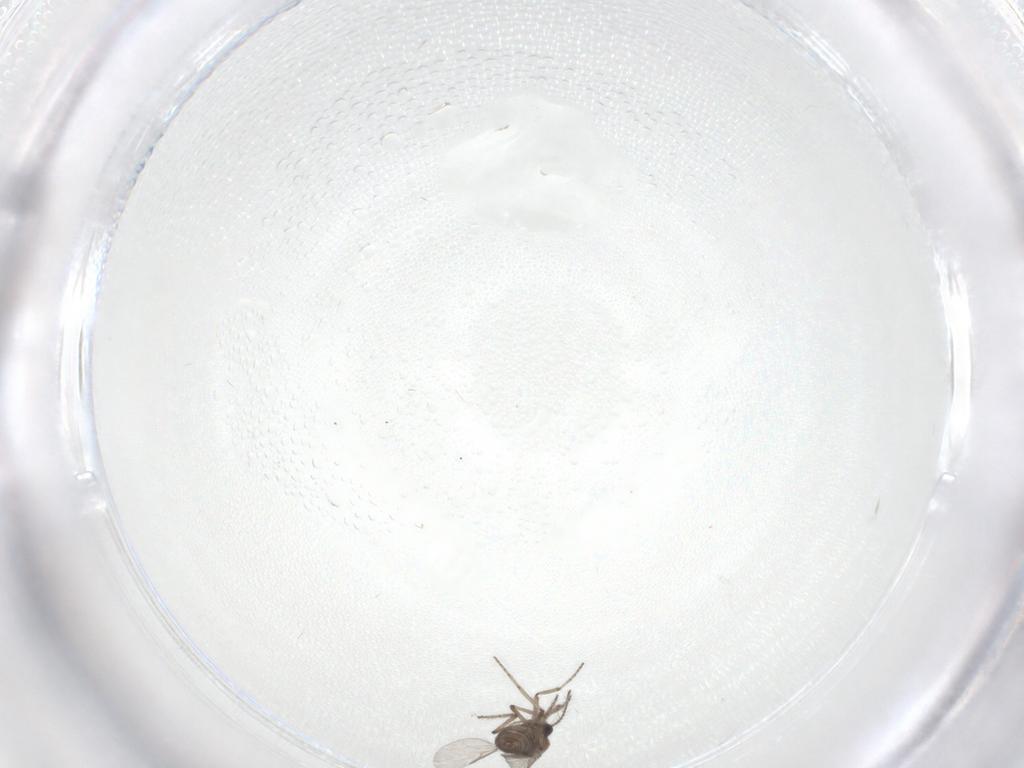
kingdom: Animalia
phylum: Arthropoda
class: Insecta
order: Diptera
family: Ceratopogonidae
